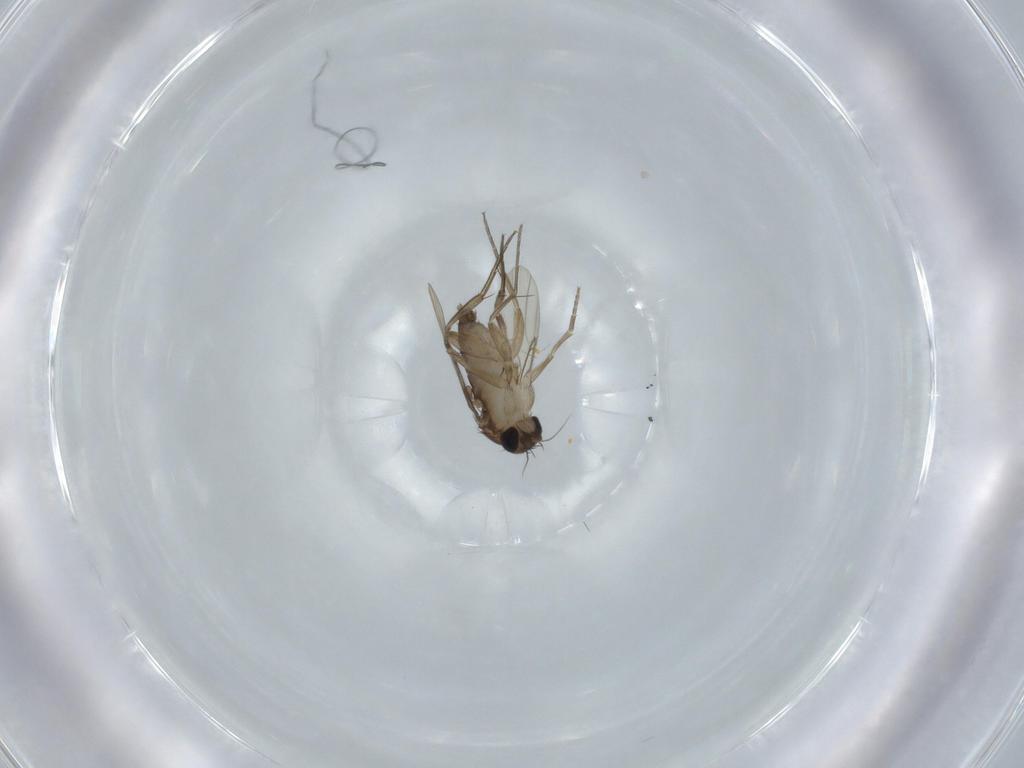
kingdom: Animalia
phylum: Arthropoda
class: Insecta
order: Diptera
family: Phoridae
